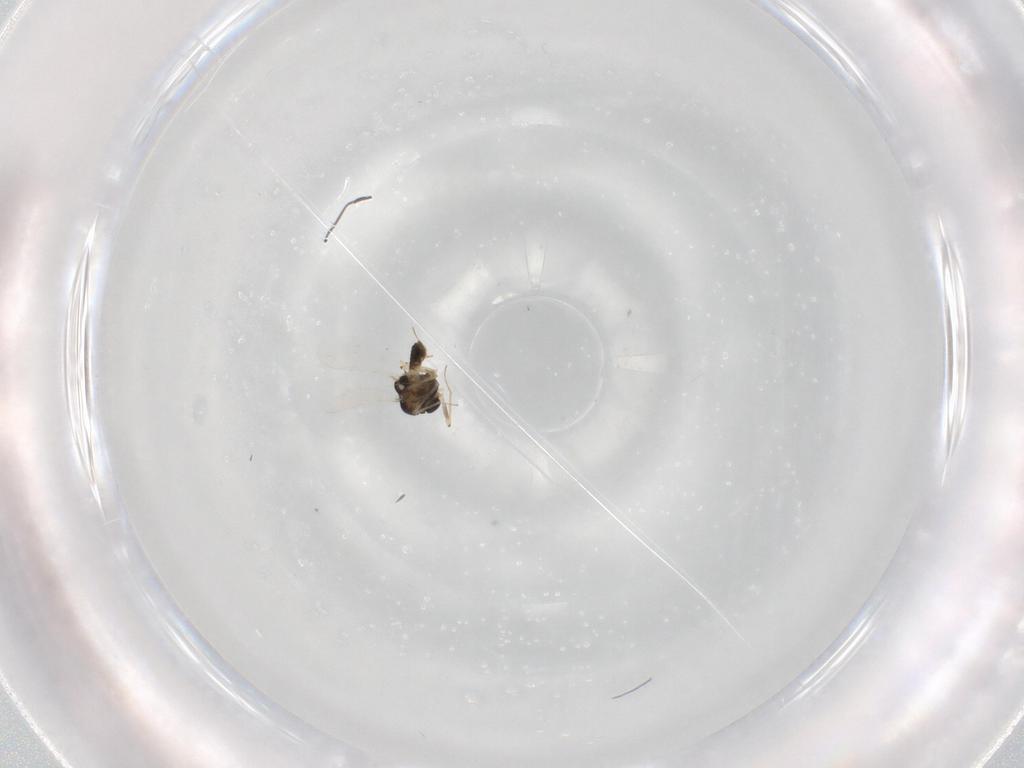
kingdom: Animalia
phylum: Arthropoda
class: Insecta
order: Diptera
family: Chironomidae
